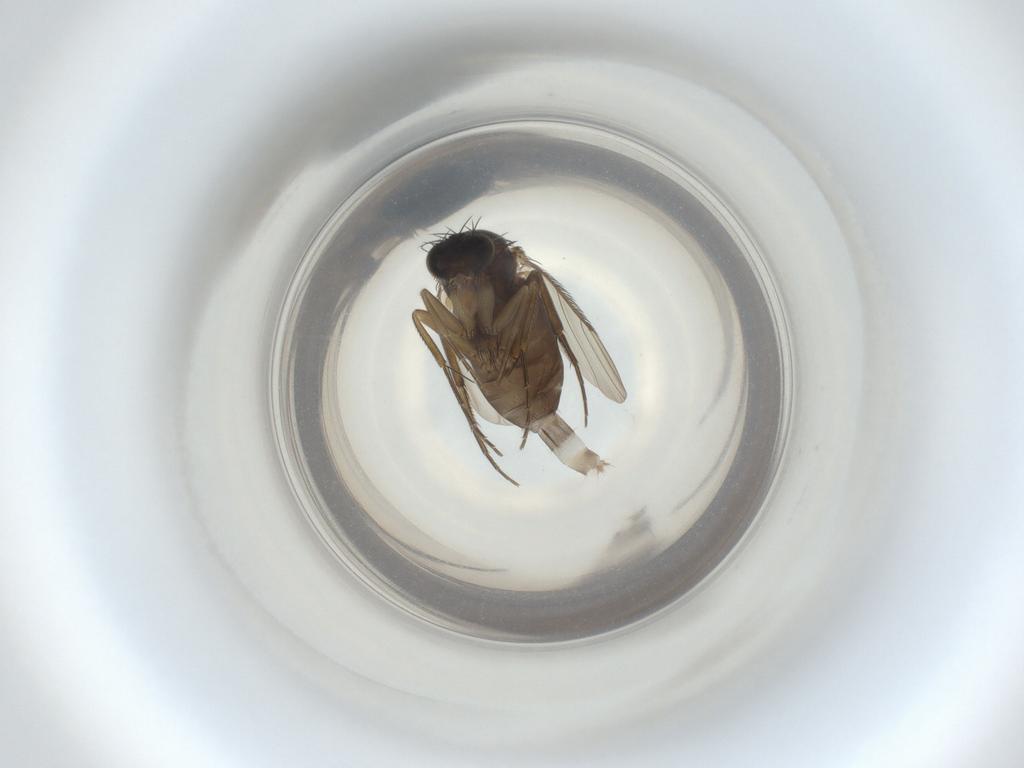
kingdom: Animalia
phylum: Arthropoda
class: Insecta
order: Diptera
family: Phoridae
